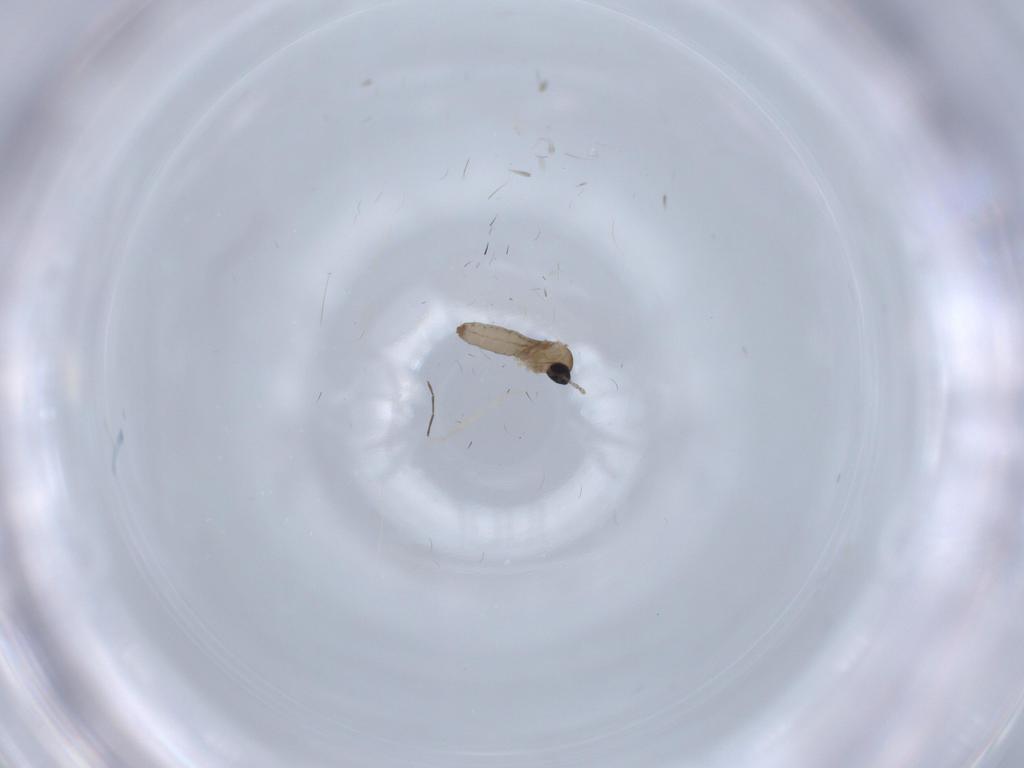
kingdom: Animalia
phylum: Arthropoda
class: Insecta
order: Diptera
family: Cecidomyiidae
